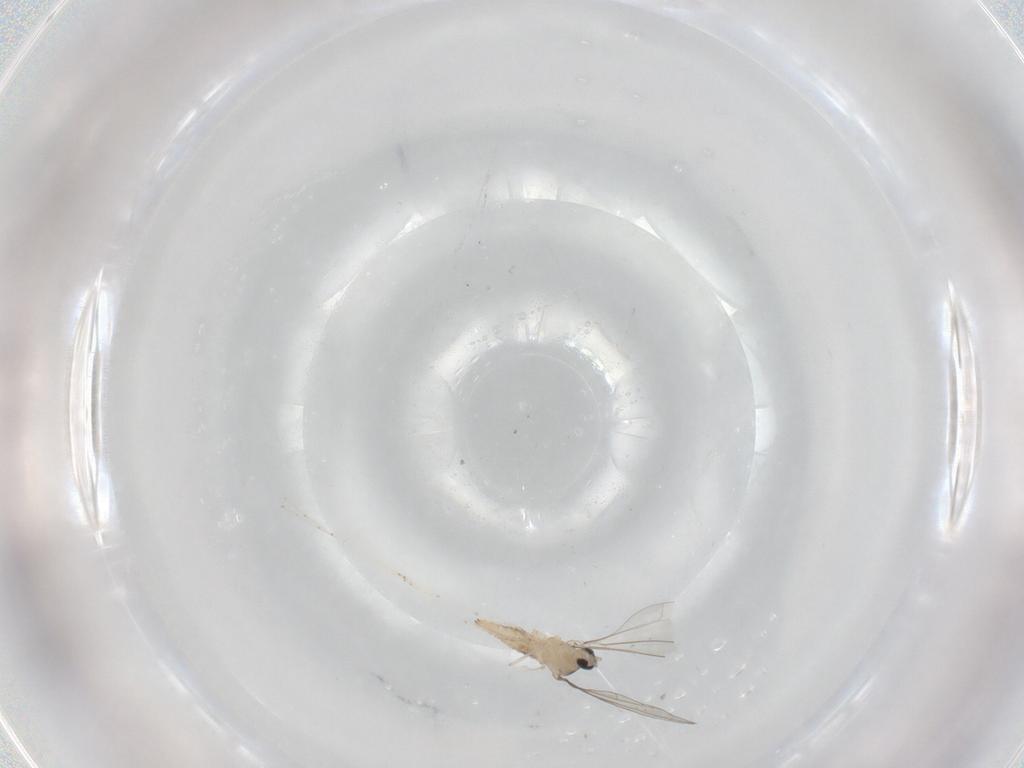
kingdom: Animalia
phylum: Arthropoda
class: Insecta
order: Diptera
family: Cecidomyiidae
